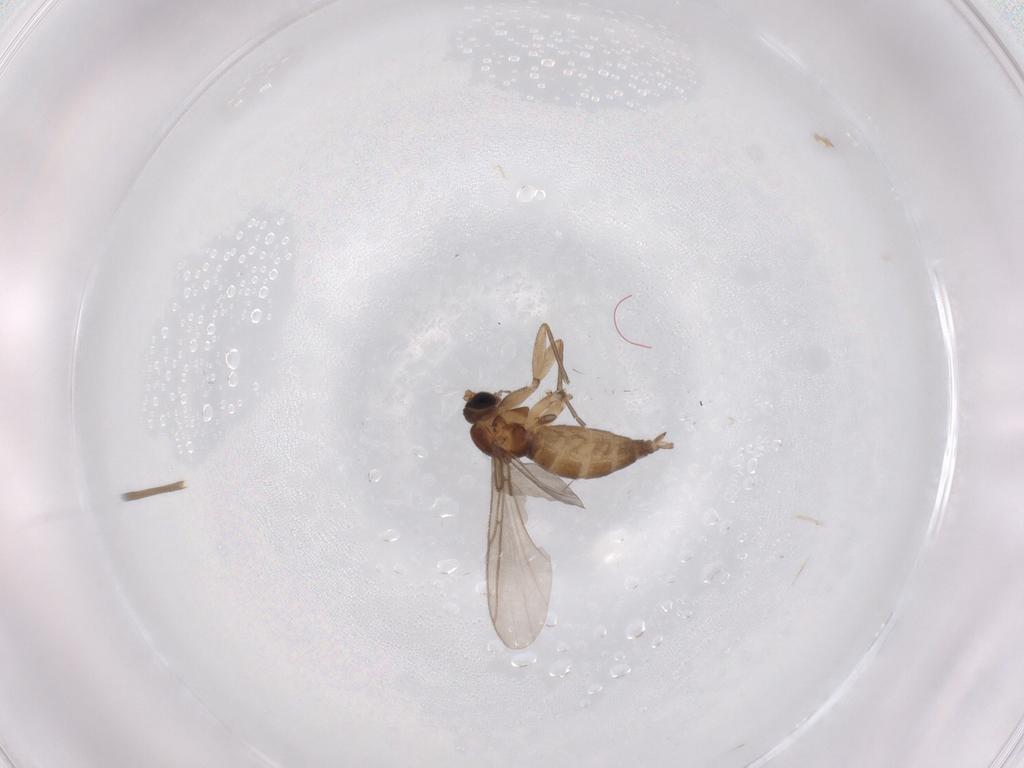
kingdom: Animalia
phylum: Arthropoda
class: Insecta
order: Diptera
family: Sciaridae
